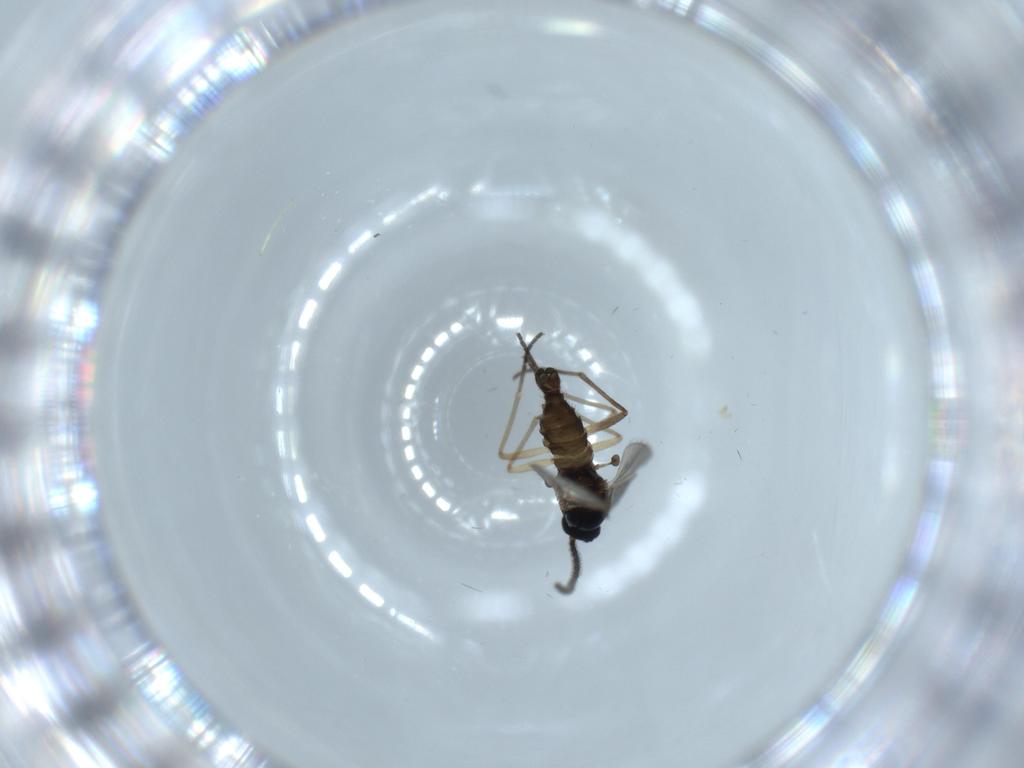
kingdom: Animalia
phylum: Arthropoda
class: Insecta
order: Diptera
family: Sciaridae
